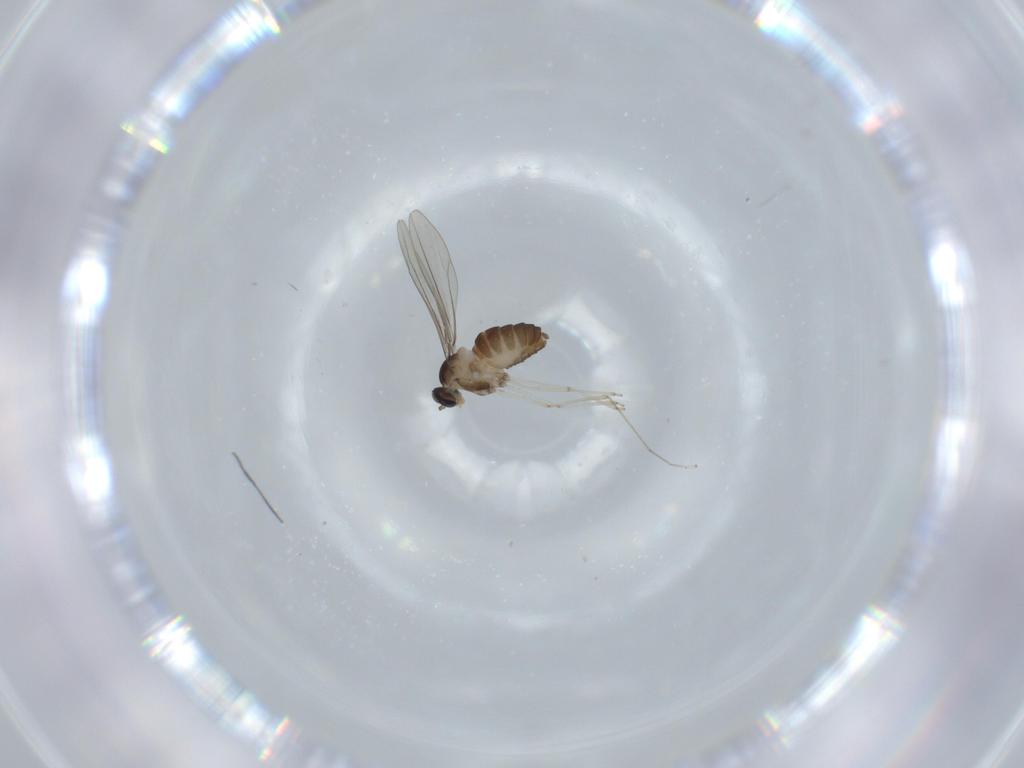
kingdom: Animalia
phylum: Arthropoda
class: Insecta
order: Diptera
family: Cecidomyiidae
